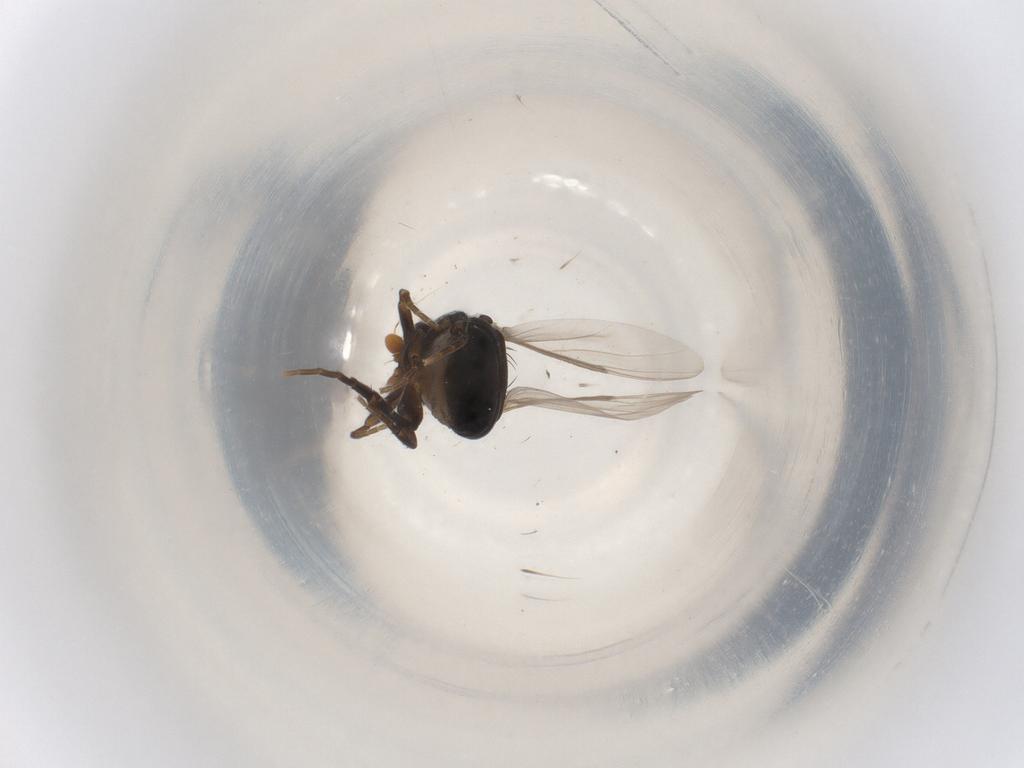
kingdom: Animalia
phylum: Arthropoda
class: Insecta
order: Diptera
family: Phoridae
